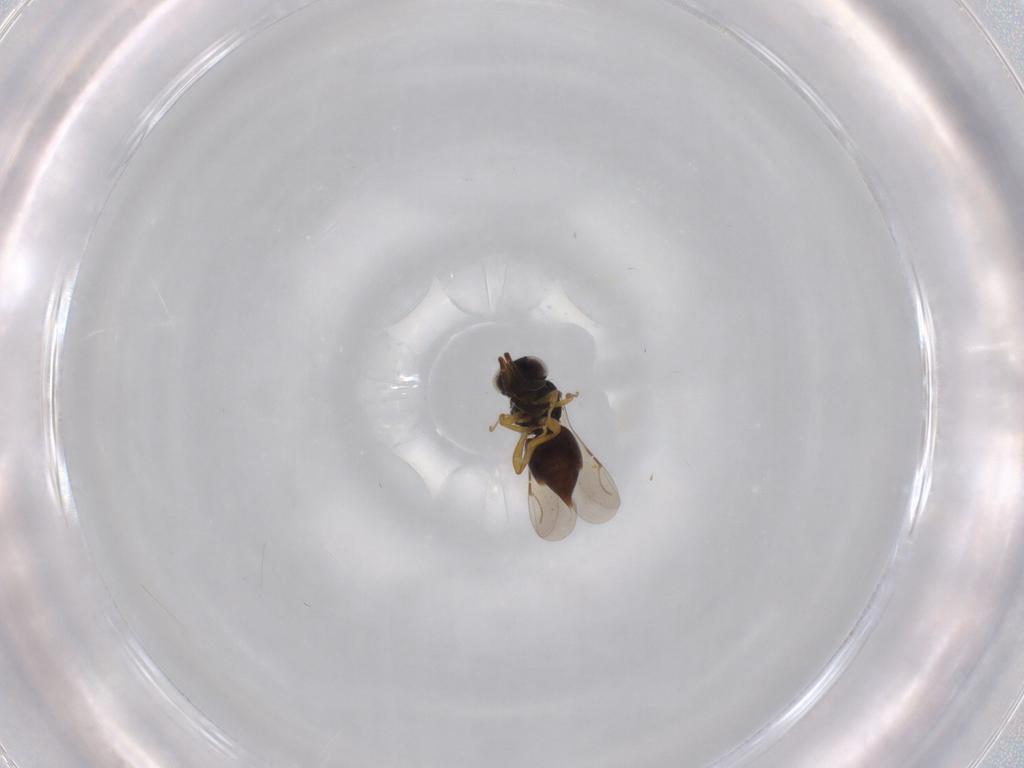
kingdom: Animalia
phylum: Arthropoda
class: Insecta
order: Hymenoptera
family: Ceraphronidae
